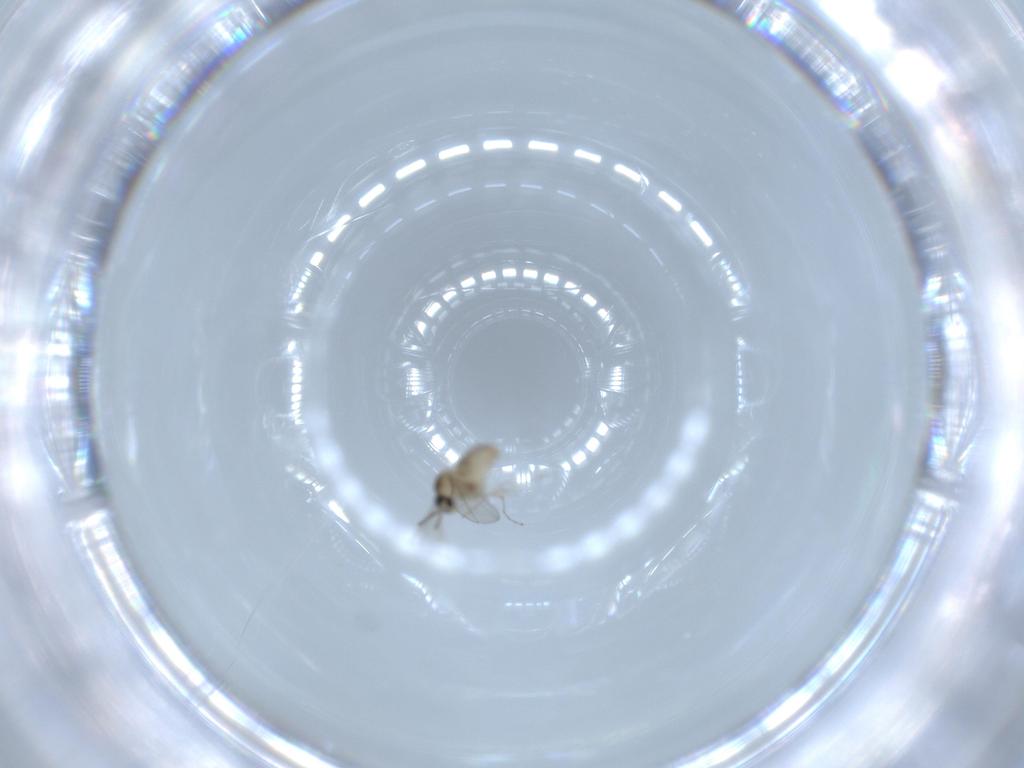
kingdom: Animalia
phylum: Arthropoda
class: Insecta
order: Diptera
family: Cecidomyiidae
